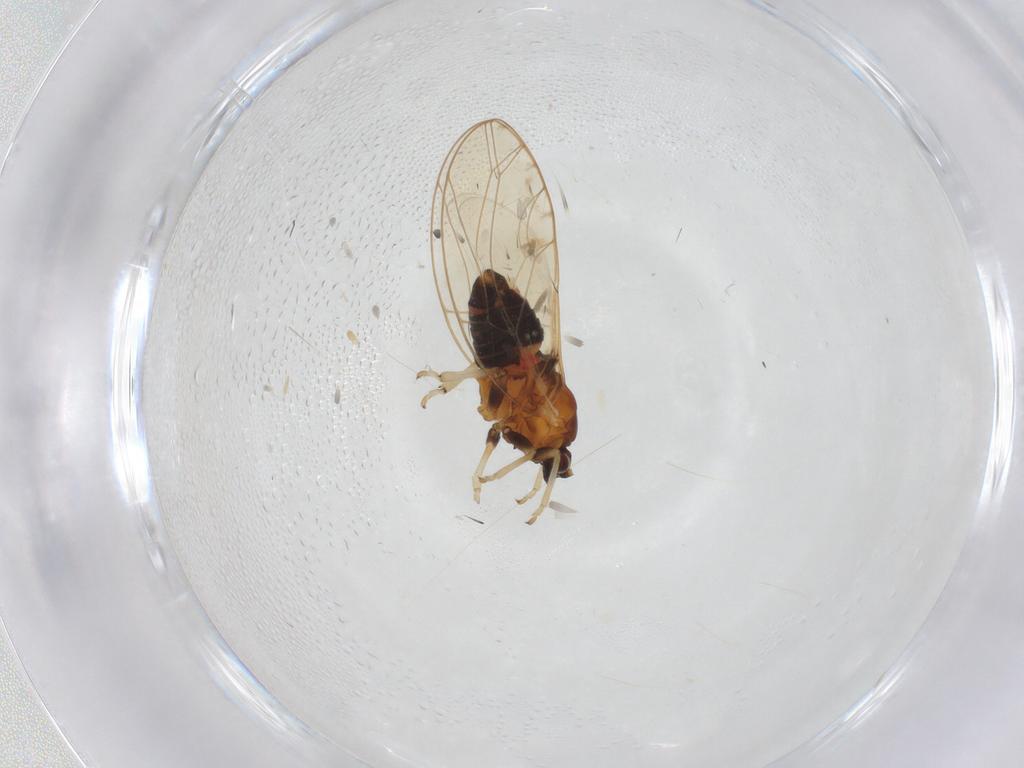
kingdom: Animalia
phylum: Arthropoda
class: Insecta
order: Hemiptera
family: Triozidae
